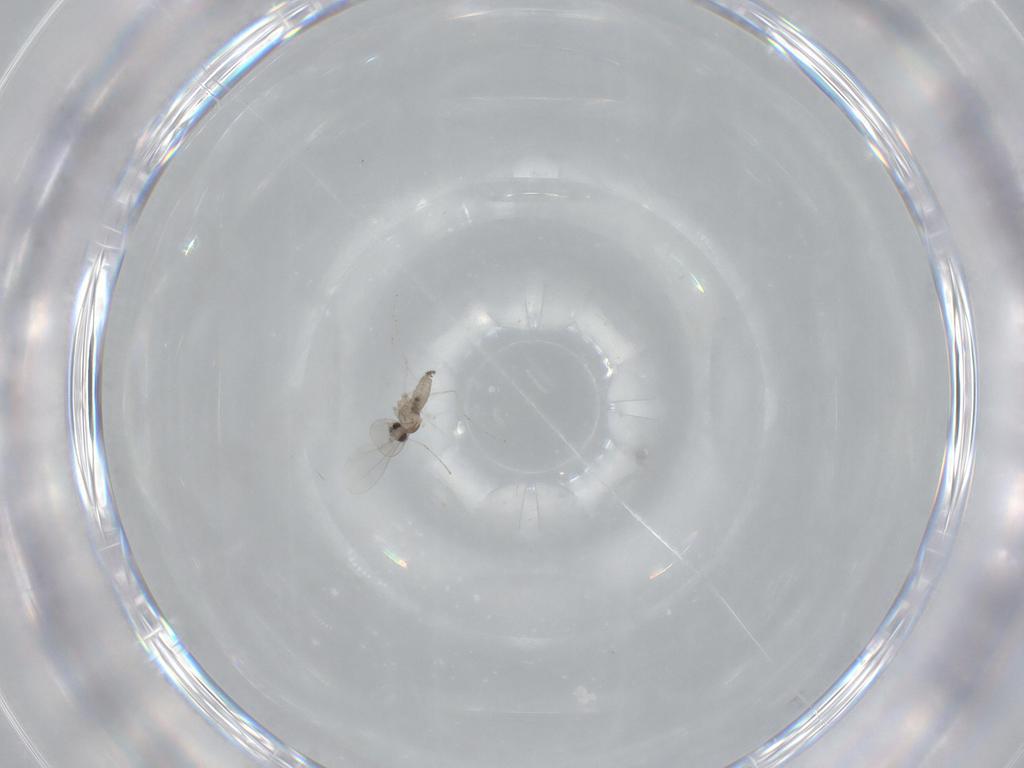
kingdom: Animalia
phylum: Arthropoda
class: Insecta
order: Diptera
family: Cecidomyiidae
